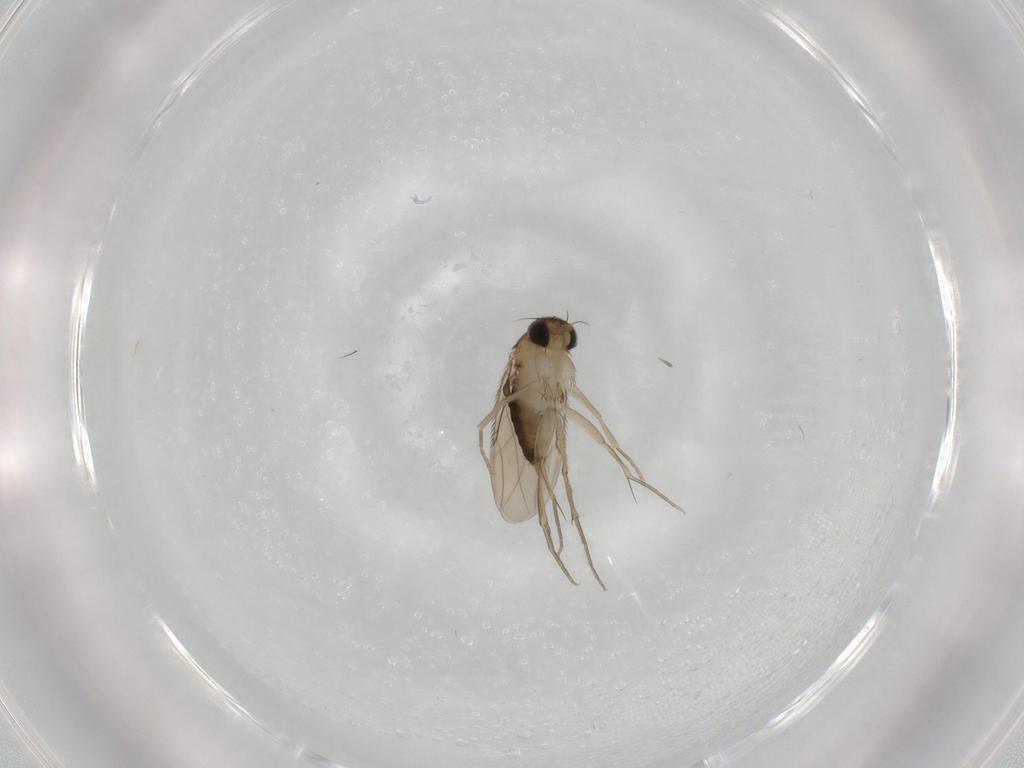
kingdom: Animalia
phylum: Arthropoda
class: Insecta
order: Diptera
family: Phoridae
